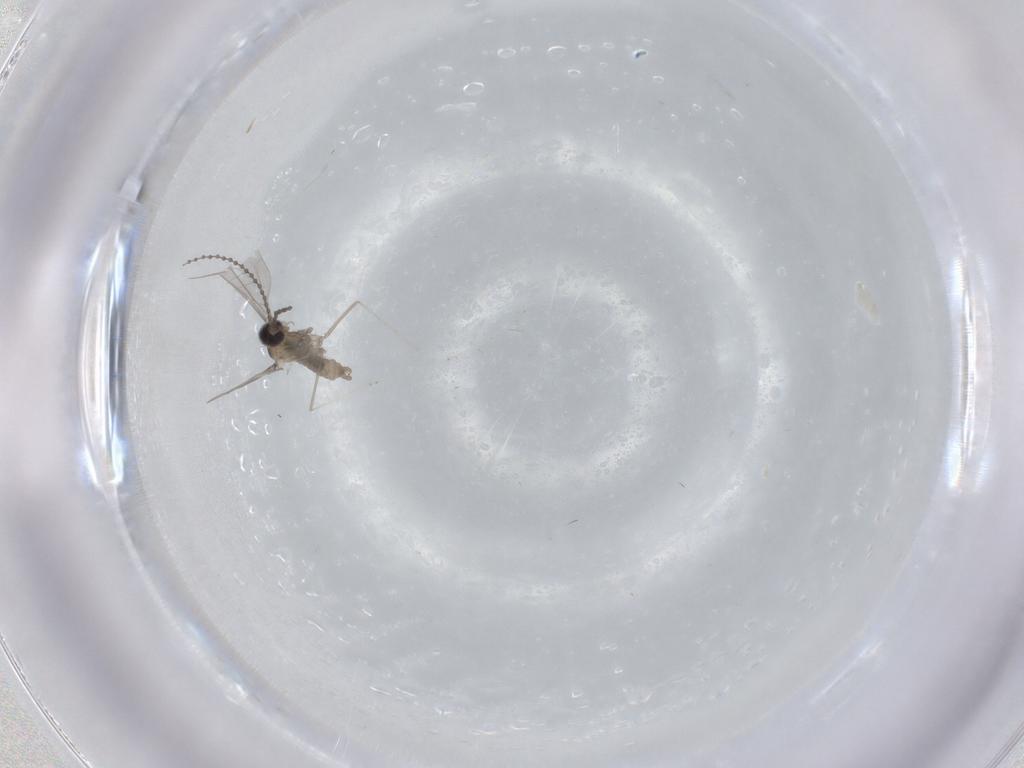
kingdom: Animalia
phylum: Arthropoda
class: Insecta
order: Diptera
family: Cecidomyiidae
